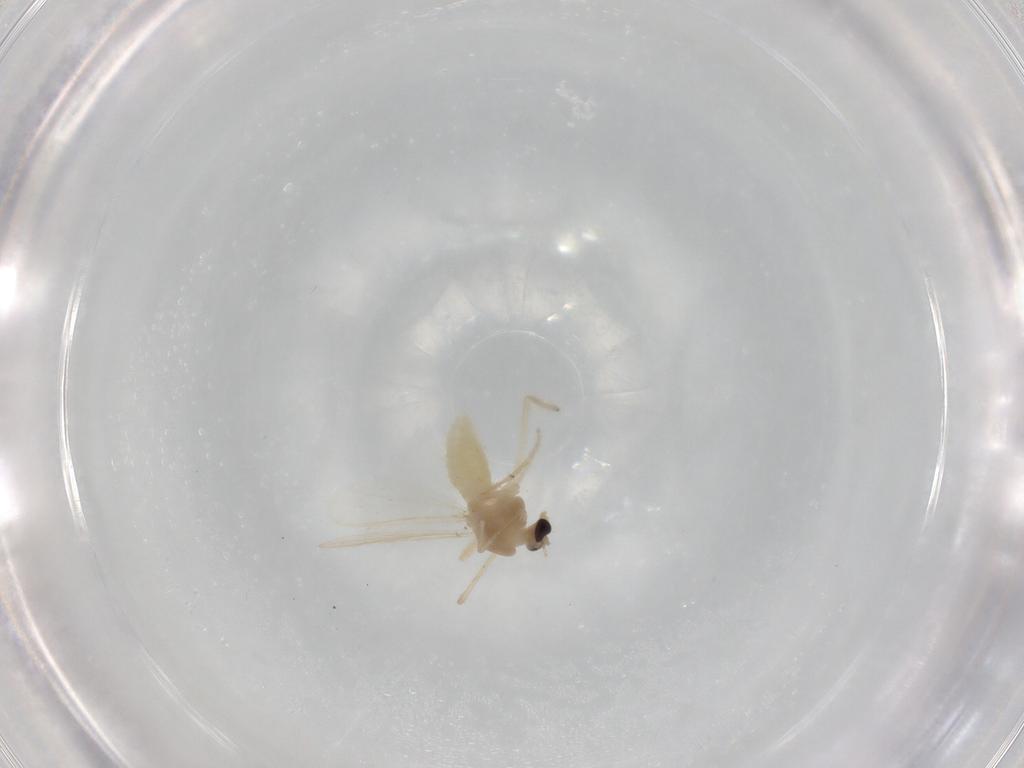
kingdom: Animalia
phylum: Arthropoda
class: Insecta
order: Diptera
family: Chironomidae
